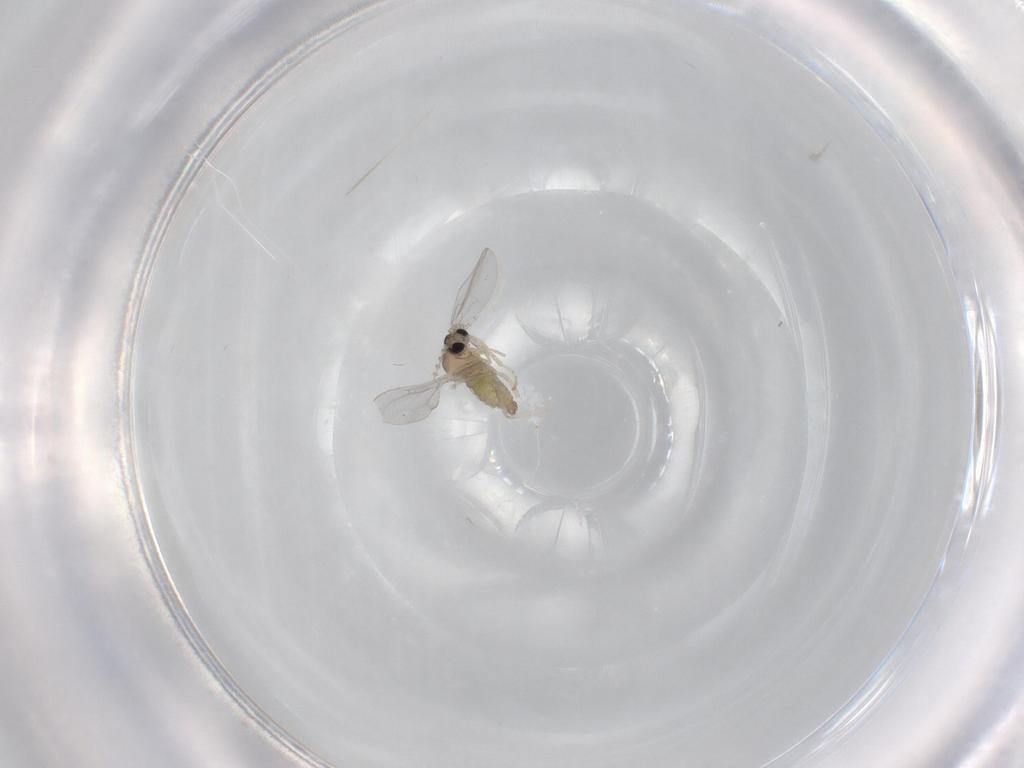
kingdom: Animalia
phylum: Arthropoda
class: Insecta
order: Diptera
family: Cecidomyiidae
